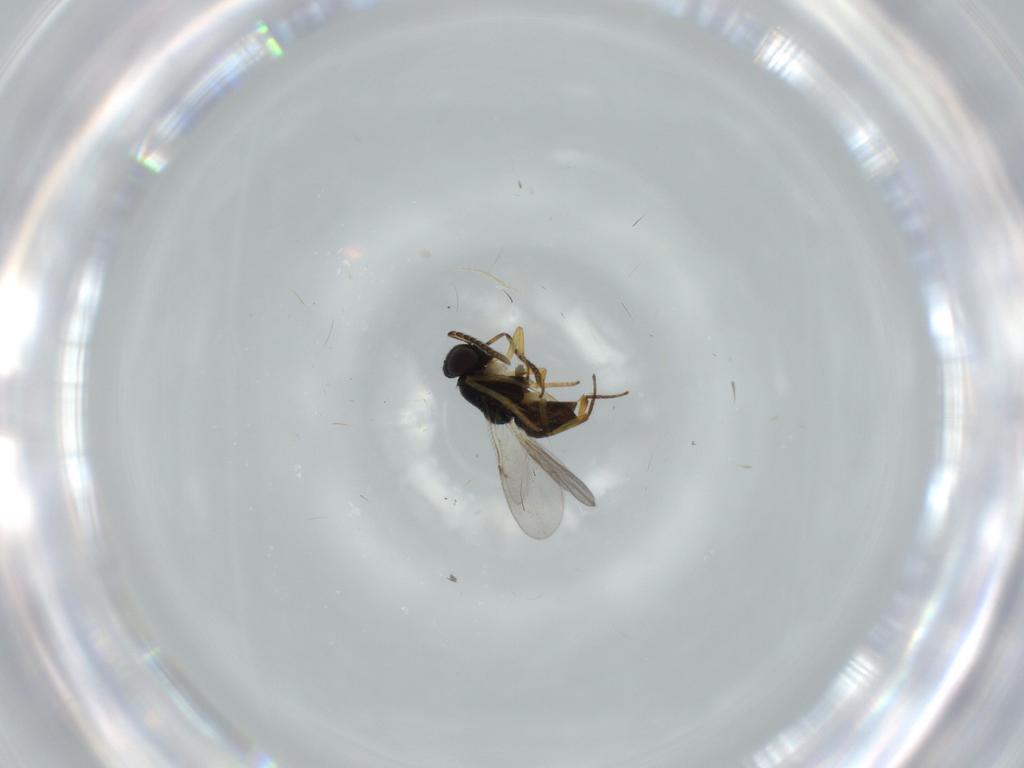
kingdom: Animalia
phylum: Arthropoda
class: Insecta
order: Hymenoptera
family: Encyrtidae
